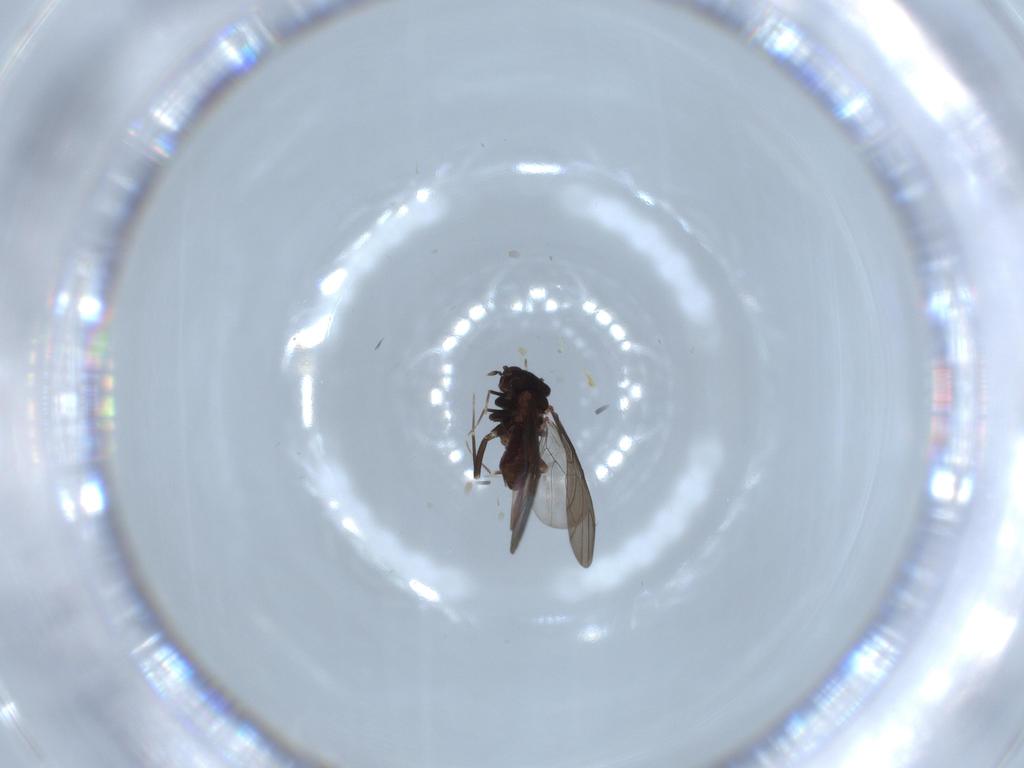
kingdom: Animalia
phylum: Arthropoda
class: Insecta
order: Psocodea
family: Lepidopsocidae
